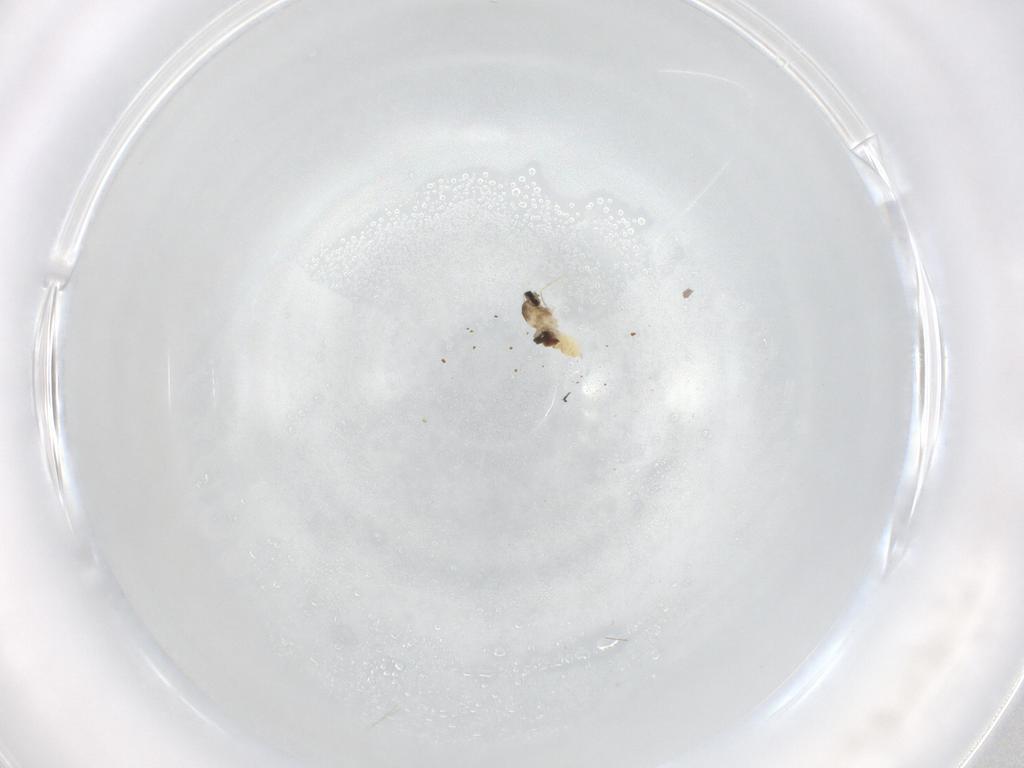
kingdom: Animalia
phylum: Arthropoda
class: Insecta
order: Diptera
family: Cecidomyiidae
